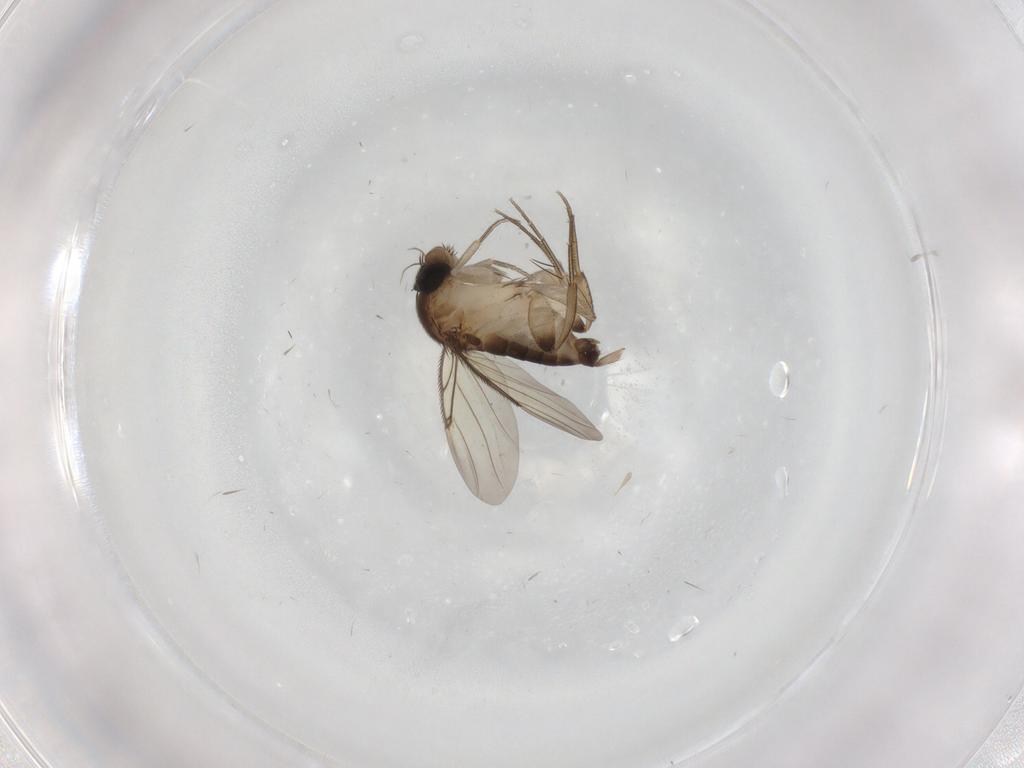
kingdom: Animalia
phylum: Arthropoda
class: Insecta
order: Diptera
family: Phoridae
